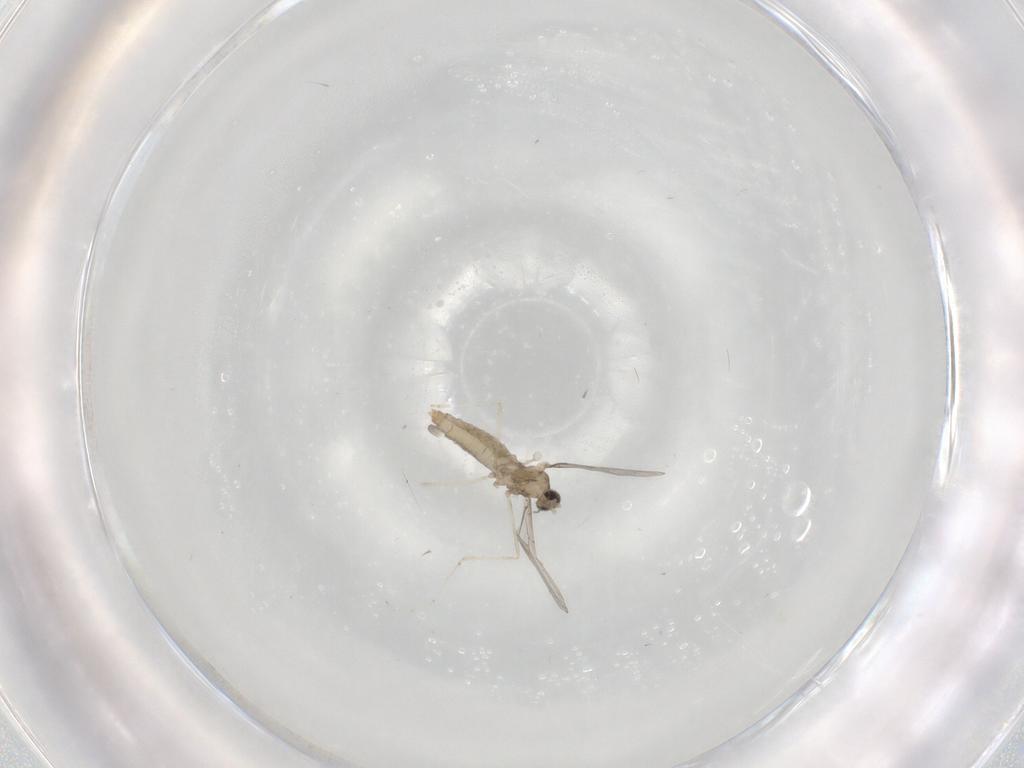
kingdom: Animalia
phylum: Arthropoda
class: Insecta
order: Diptera
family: Cecidomyiidae
